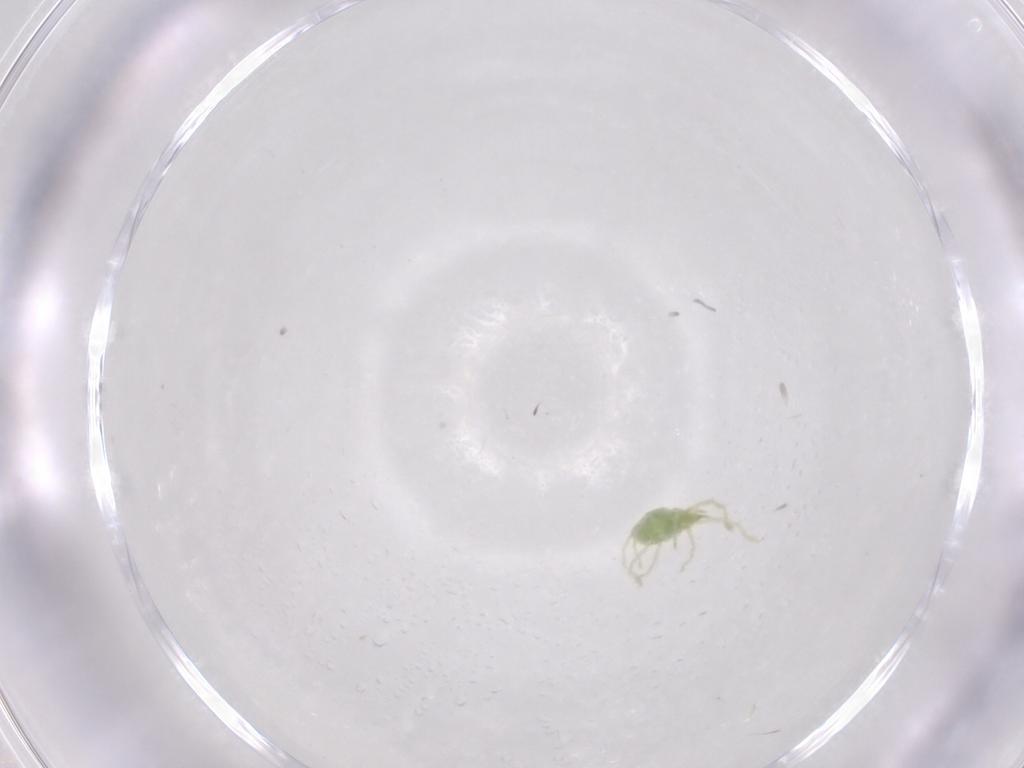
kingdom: Animalia
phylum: Arthropoda
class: Arachnida
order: Trombidiformes
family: Erythraeidae
